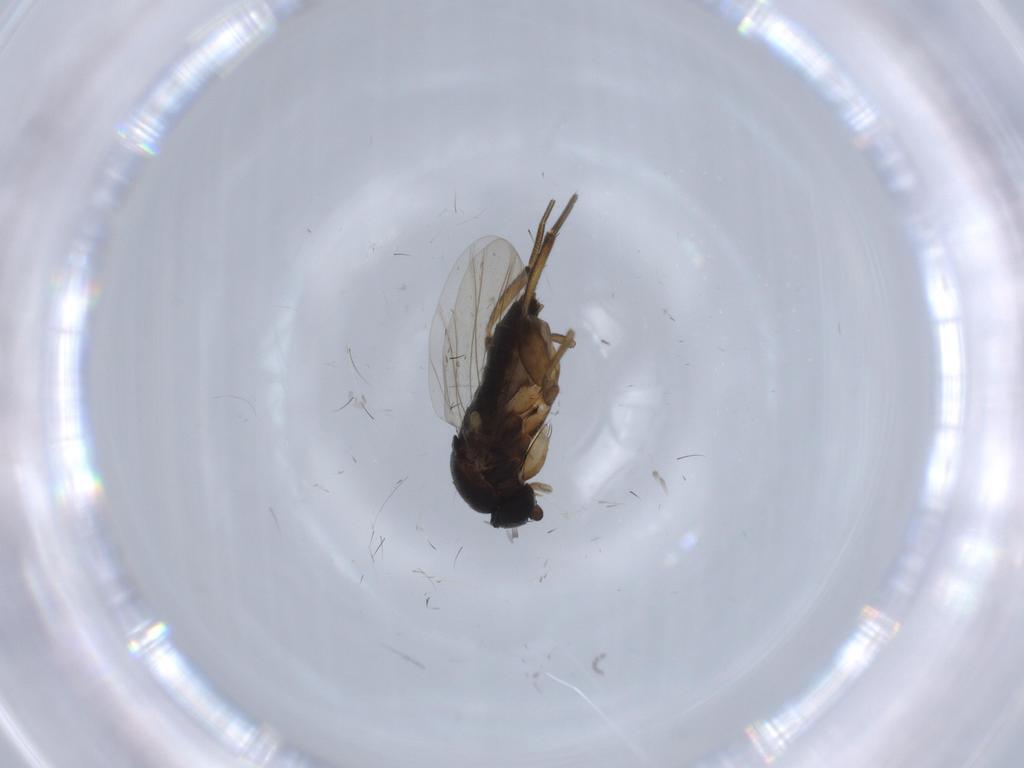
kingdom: Animalia
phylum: Arthropoda
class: Insecta
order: Diptera
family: Phoridae
